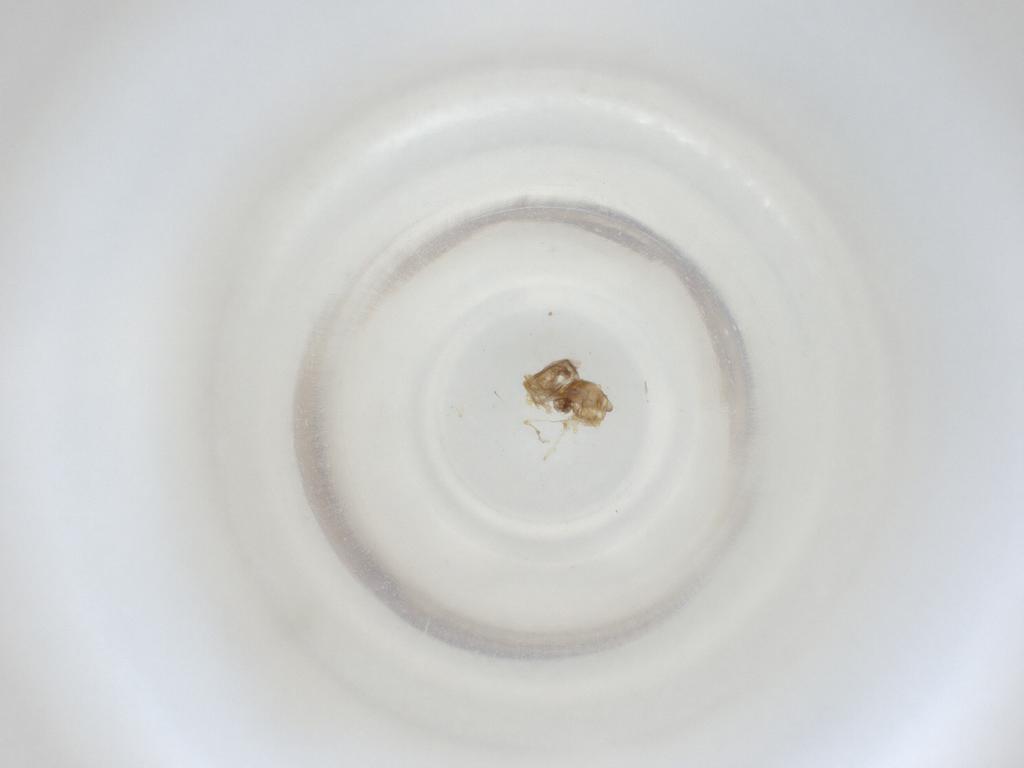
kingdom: Animalia
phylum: Arthropoda
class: Insecta
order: Diptera
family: Cecidomyiidae
